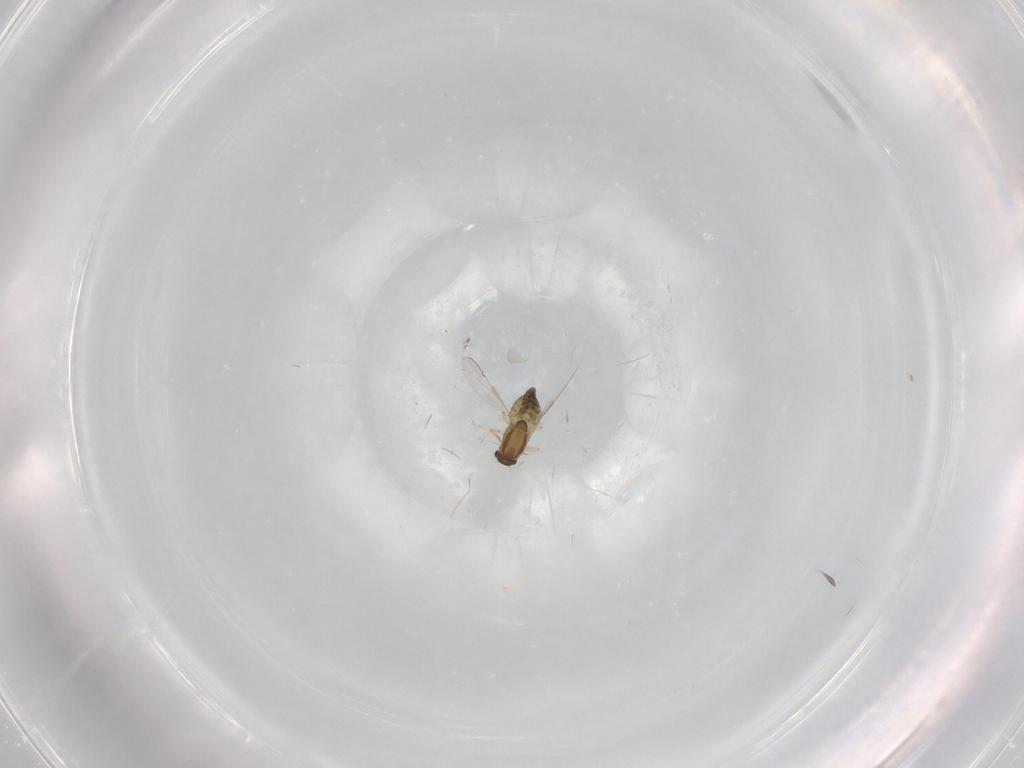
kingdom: Animalia
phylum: Arthropoda
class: Insecta
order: Diptera
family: Chironomidae
